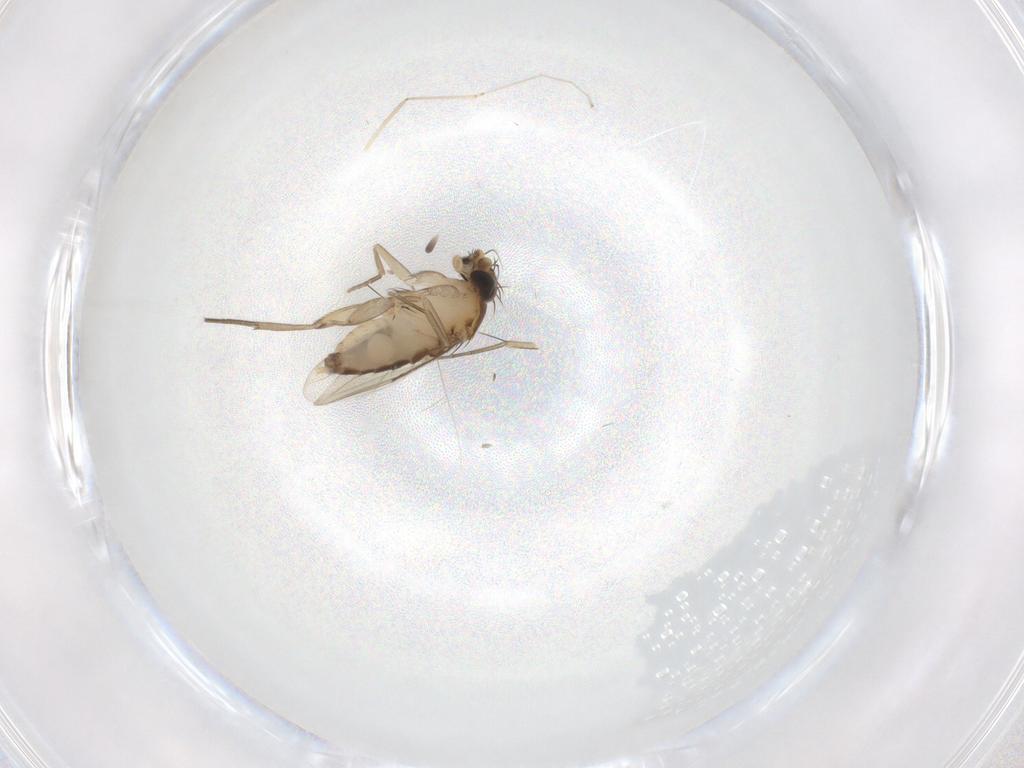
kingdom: Animalia
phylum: Arthropoda
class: Insecta
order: Diptera
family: Phoridae
